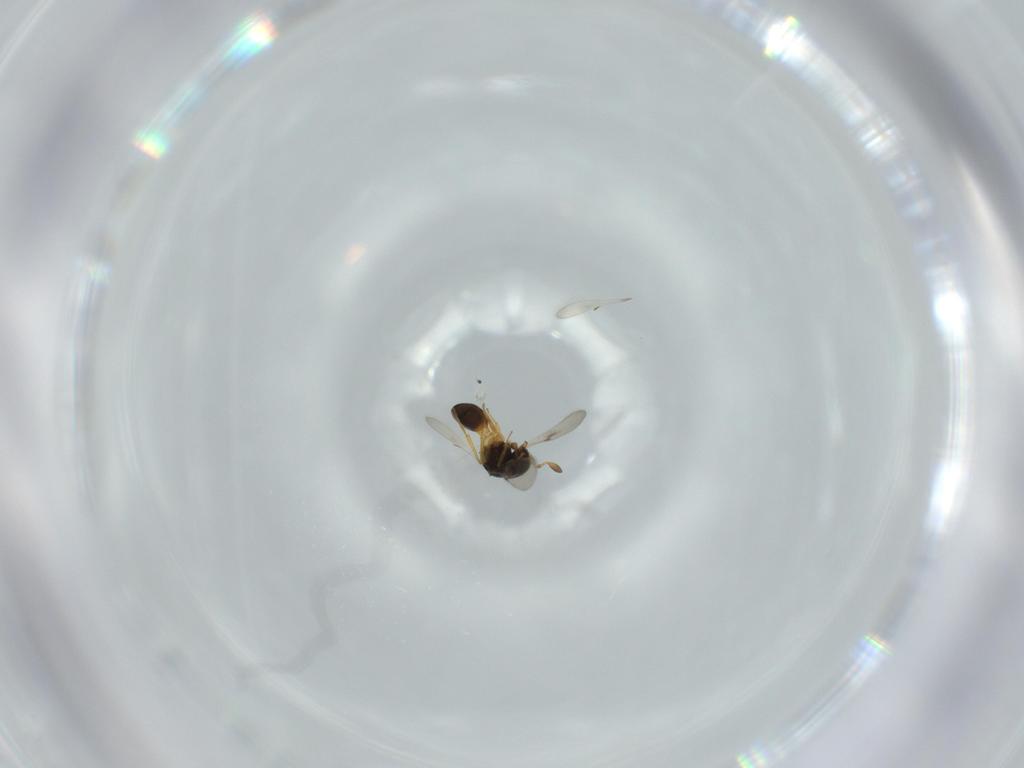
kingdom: Animalia
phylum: Arthropoda
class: Insecta
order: Hymenoptera
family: Scelionidae
